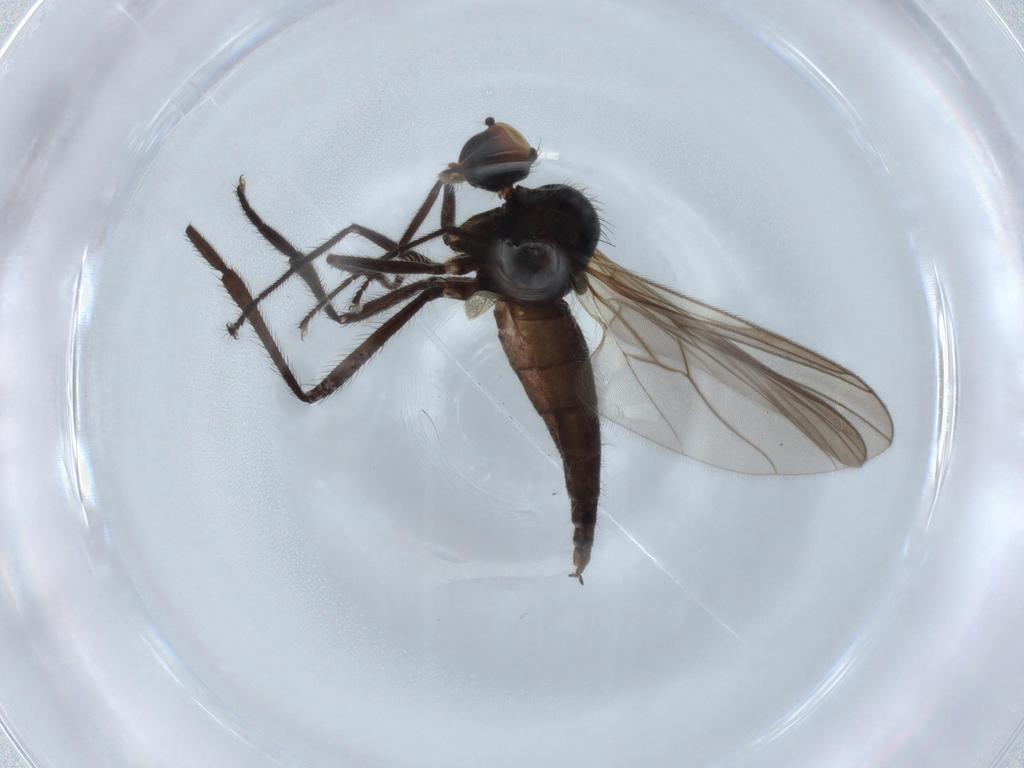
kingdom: Animalia
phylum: Arthropoda
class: Insecta
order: Diptera
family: Hybotidae
